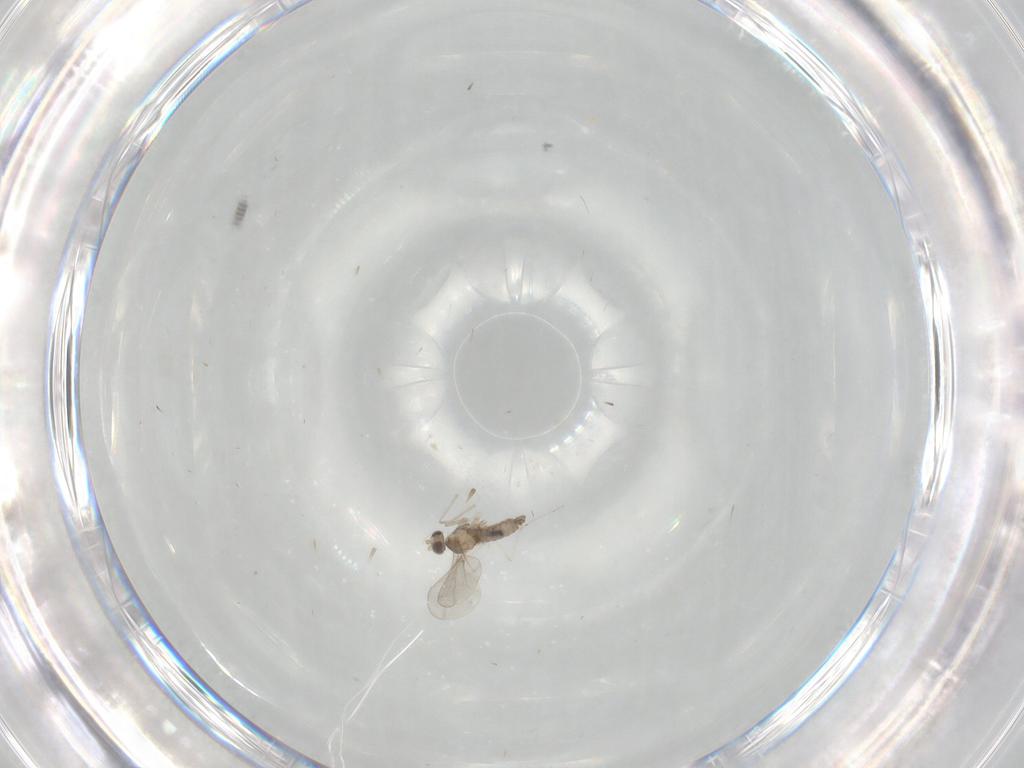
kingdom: Animalia
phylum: Arthropoda
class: Insecta
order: Diptera
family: Cecidomyiidae
